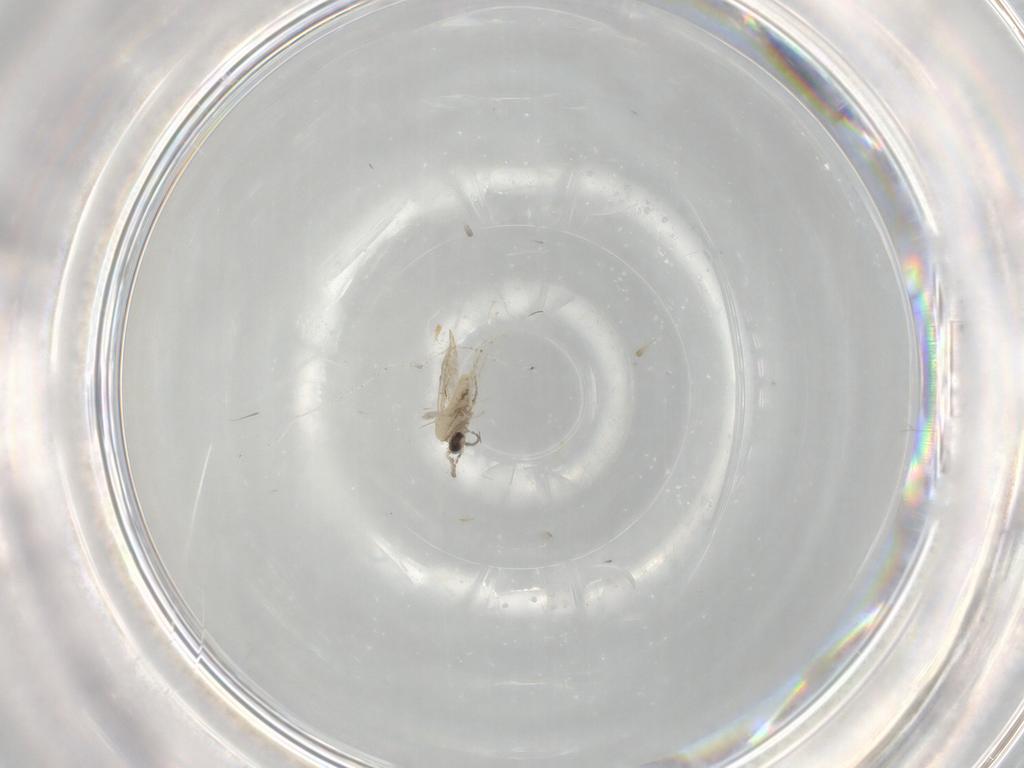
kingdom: Animalia
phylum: Arthropoda
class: Insecta
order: Diptera
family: Cecidomyiidae
